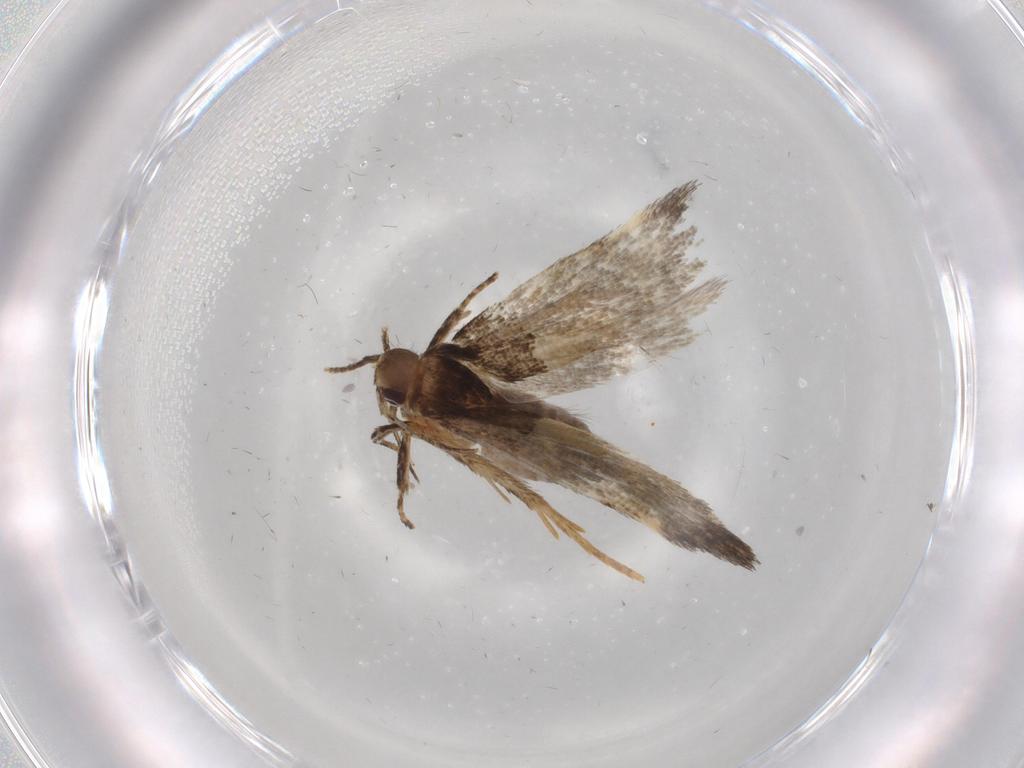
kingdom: Animalia
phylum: Arthropoda
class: Insecta
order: Lepidoptera
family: Cosmopterigidae
